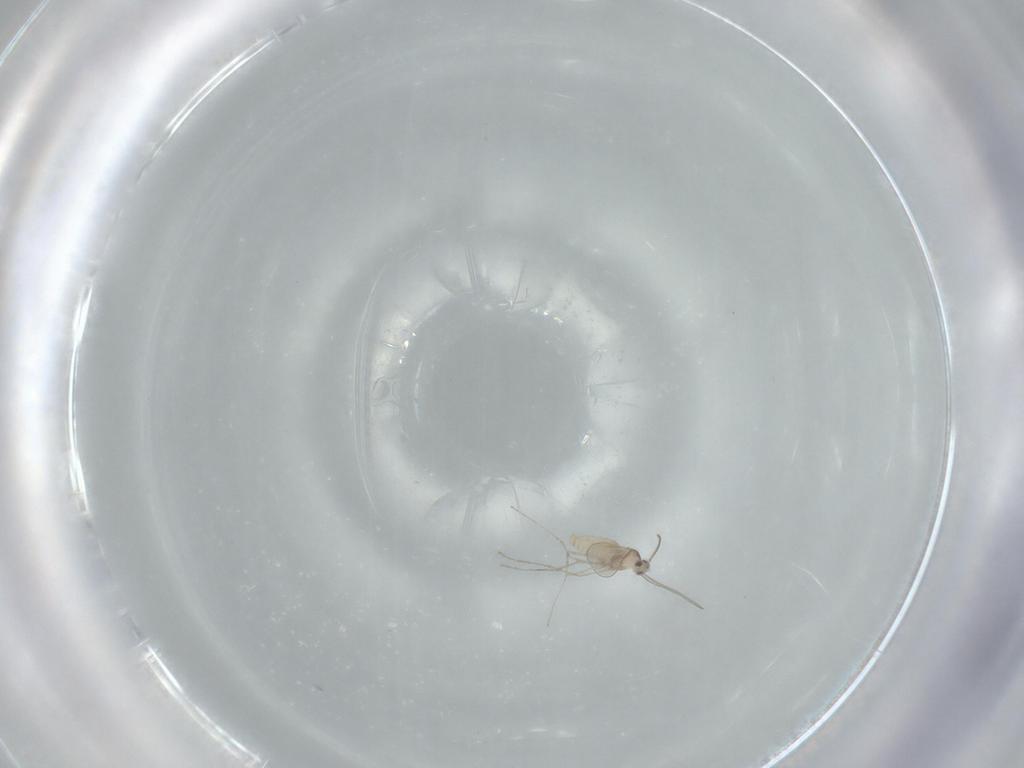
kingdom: Animalia
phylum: Arthropoda
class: Insecta
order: Diptera
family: Cecidomyiidae
